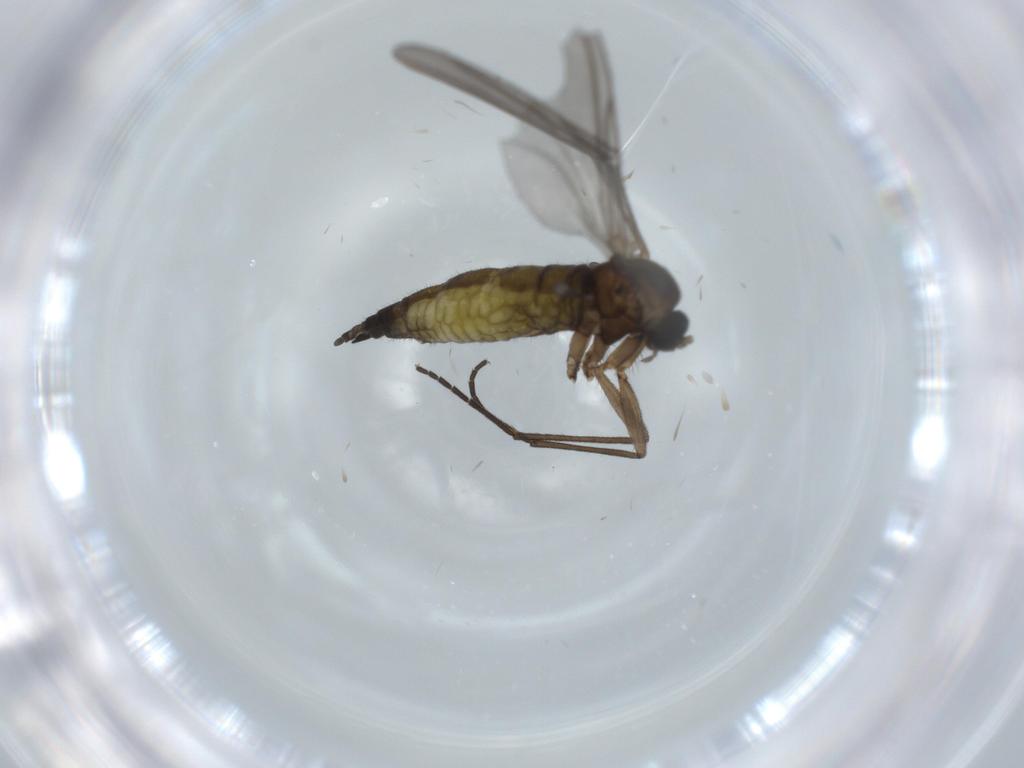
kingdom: Animalia
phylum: Arthropoda
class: Insecta
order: Diptera
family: Sciaridae
